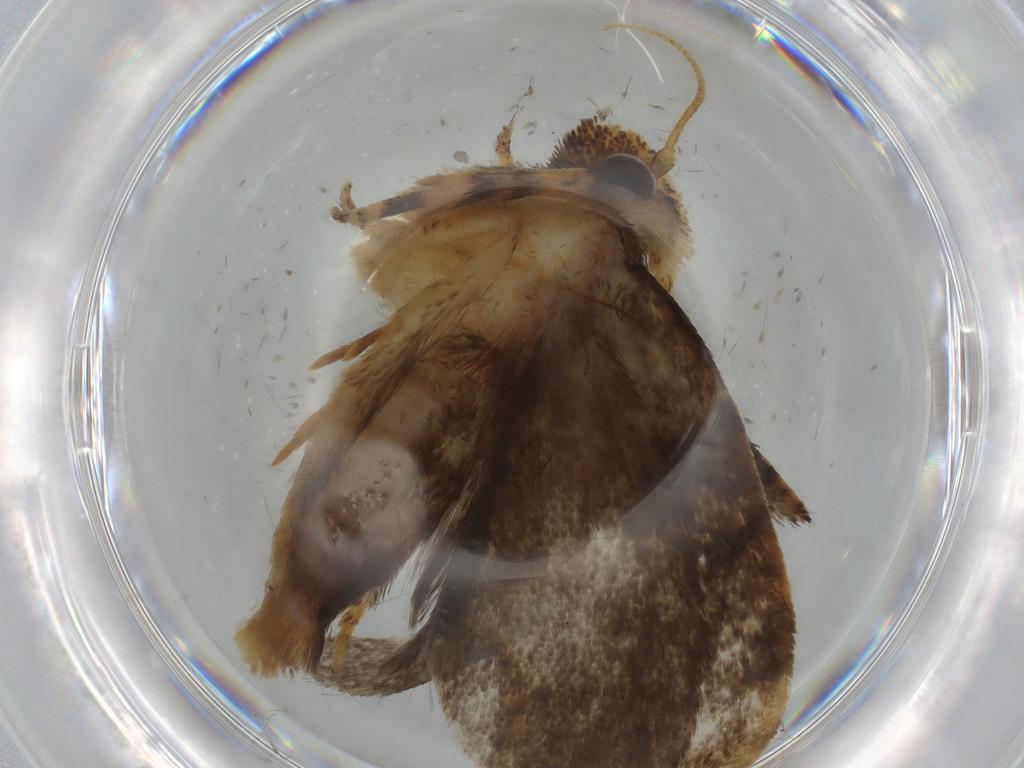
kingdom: Animalia
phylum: Arthropoda
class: Insecta
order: Lepidoptera
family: Tineidae
